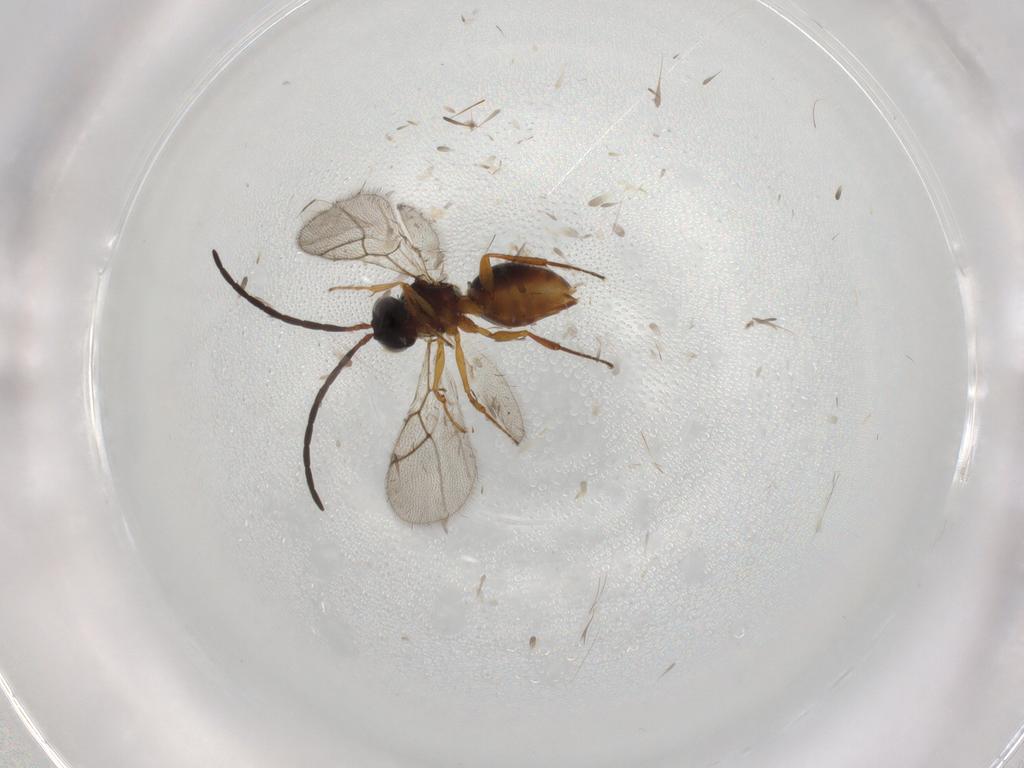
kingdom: Animalia
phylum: Arthropoda
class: Insecta
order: Hymenoptera
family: Figitidae
